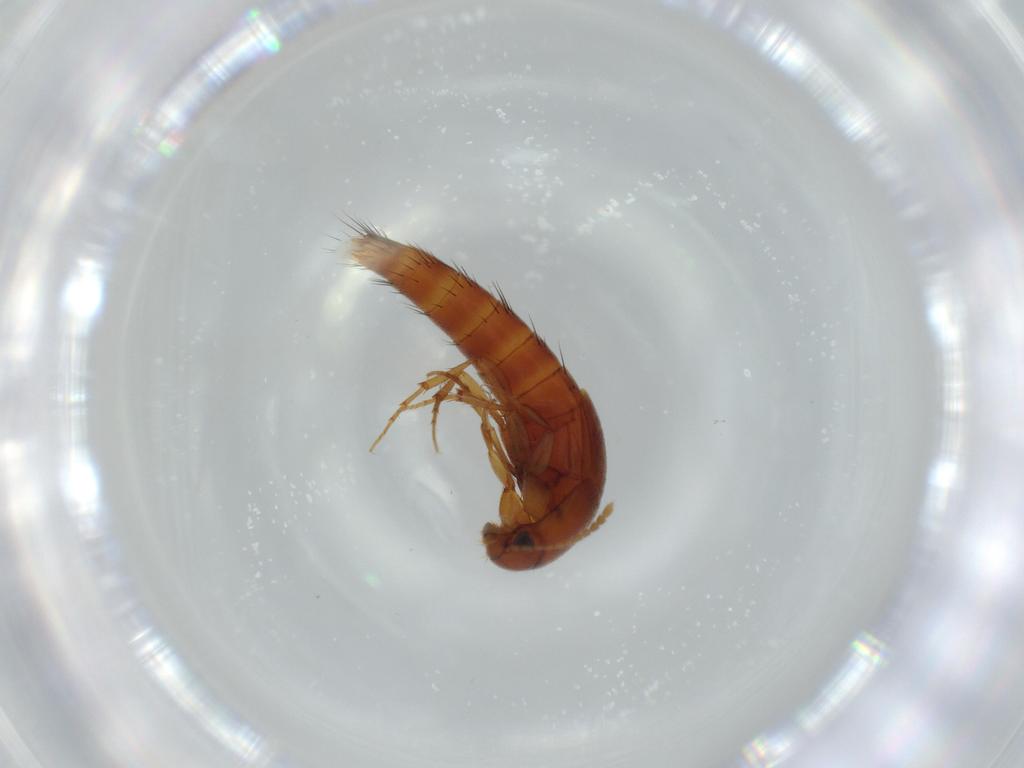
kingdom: Animalia
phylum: Arthropoda
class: Insecta
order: Coleoptera
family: Staphylinidae
